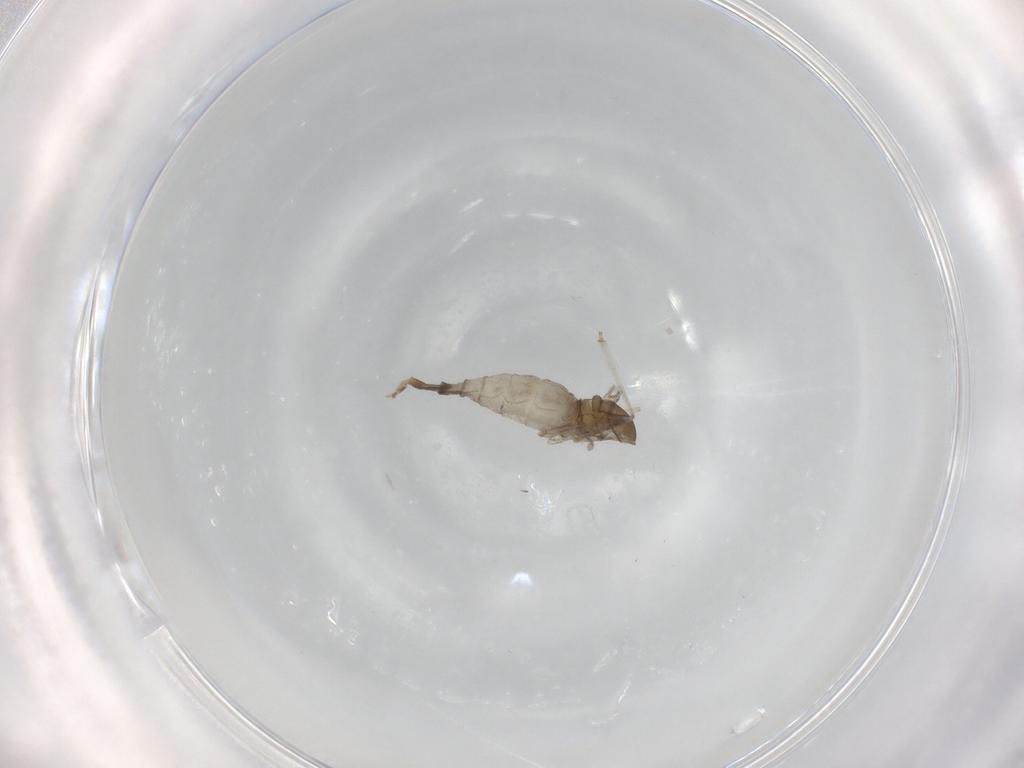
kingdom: Animalia
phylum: Arthropoda
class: Insecta
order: Diptera
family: Cecidomyiidae
